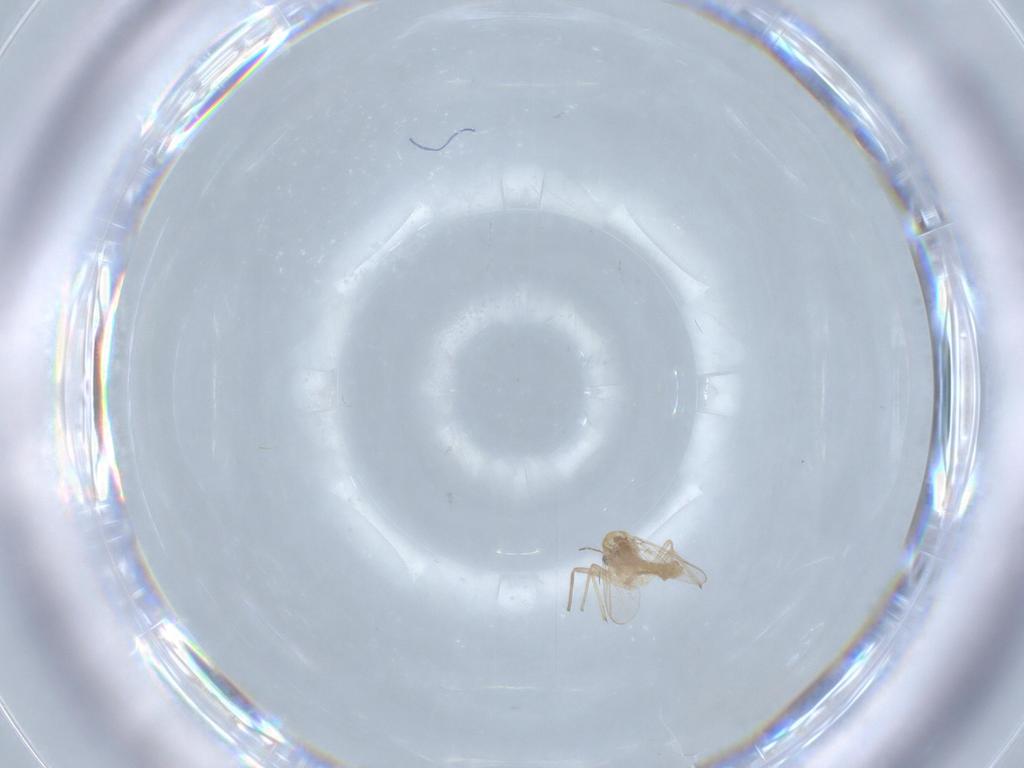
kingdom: Animalia
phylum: Arthropoda
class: Insecta
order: Diptera
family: Chironomidae
